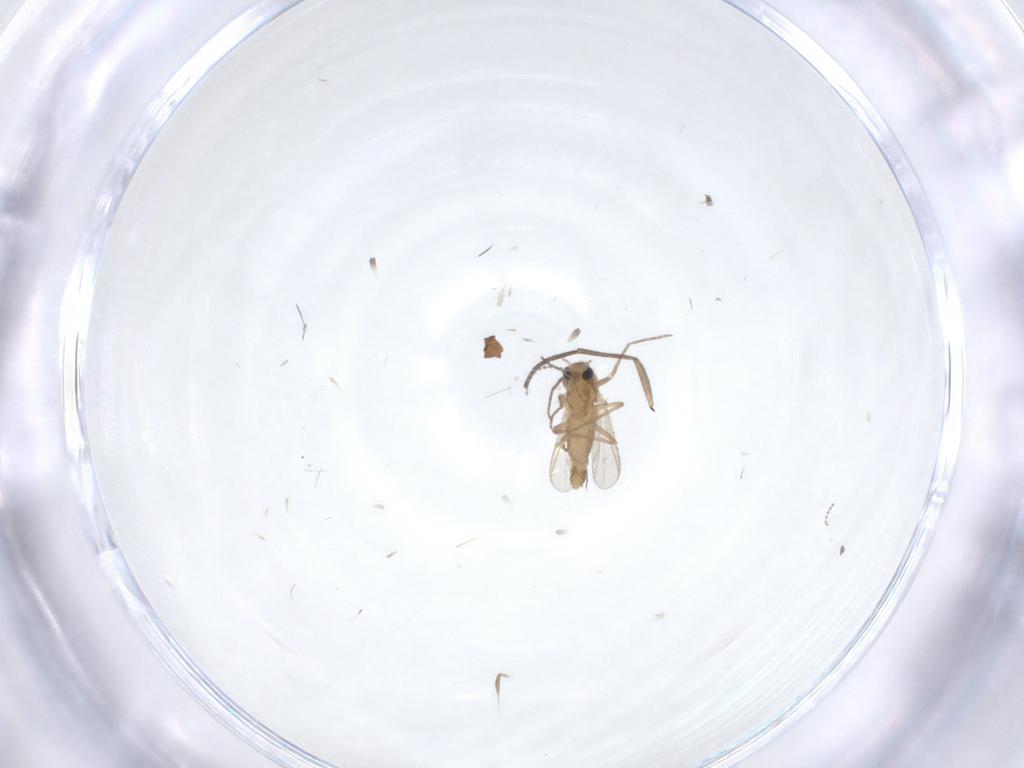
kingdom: Animalia
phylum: Arthropoda
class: Insecta
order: Diptera
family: Chironomidae
